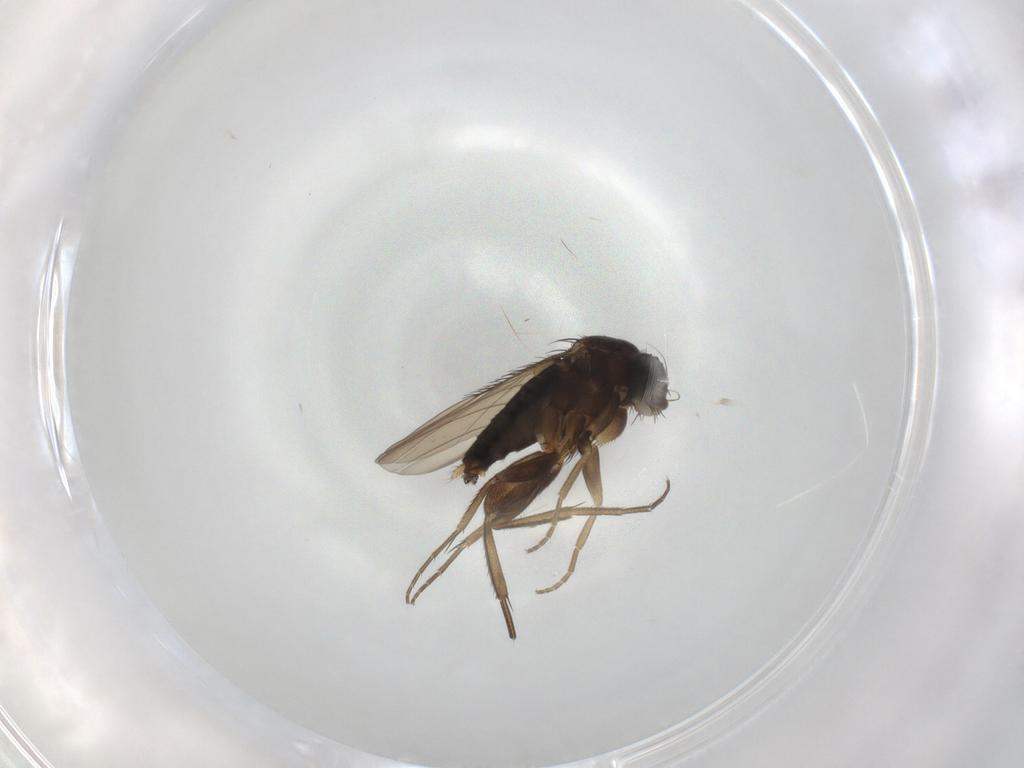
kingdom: Animalia
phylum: Arthropoda
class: Insecta
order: Diptera
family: Phoridae
